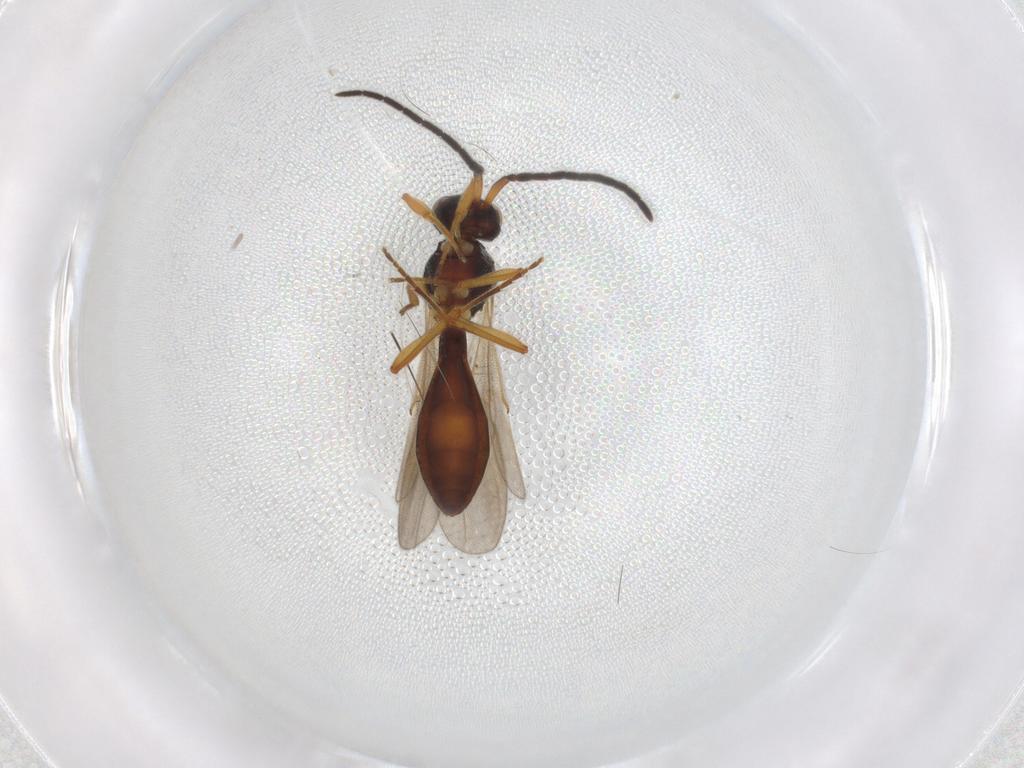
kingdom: Animalia
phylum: Arthropoda
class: Insecta
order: Hymenoptera
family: Scelionidae
